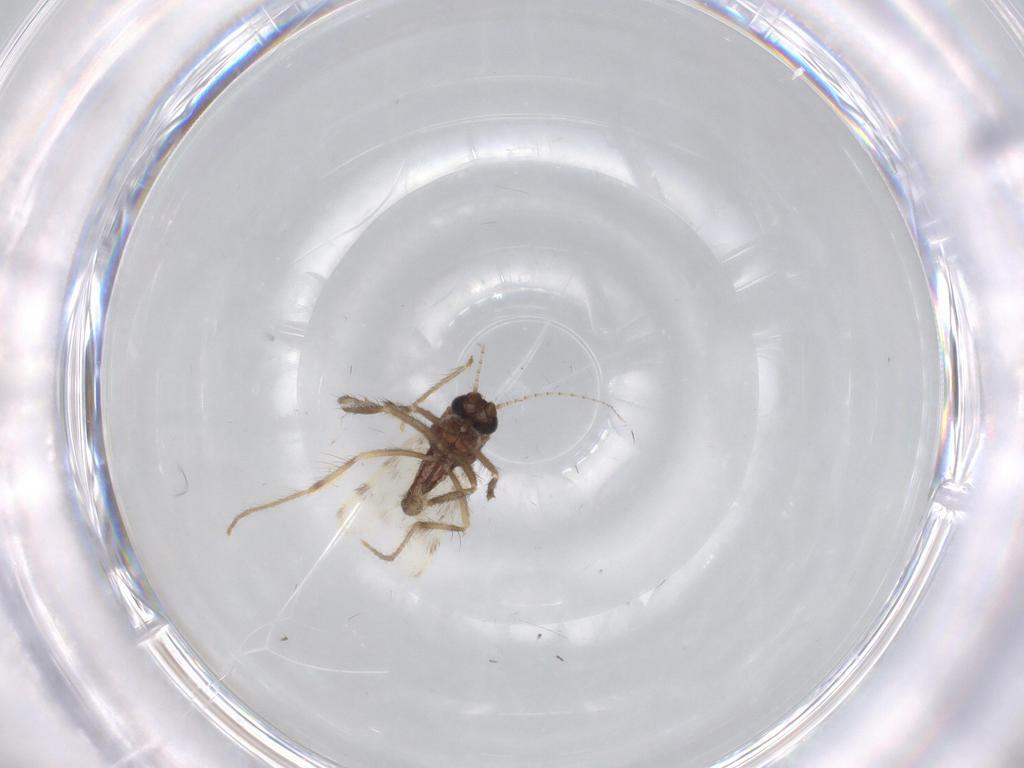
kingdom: Animalia
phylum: Arthropoda
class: Insecta
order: Diptera
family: Corethrellidae
